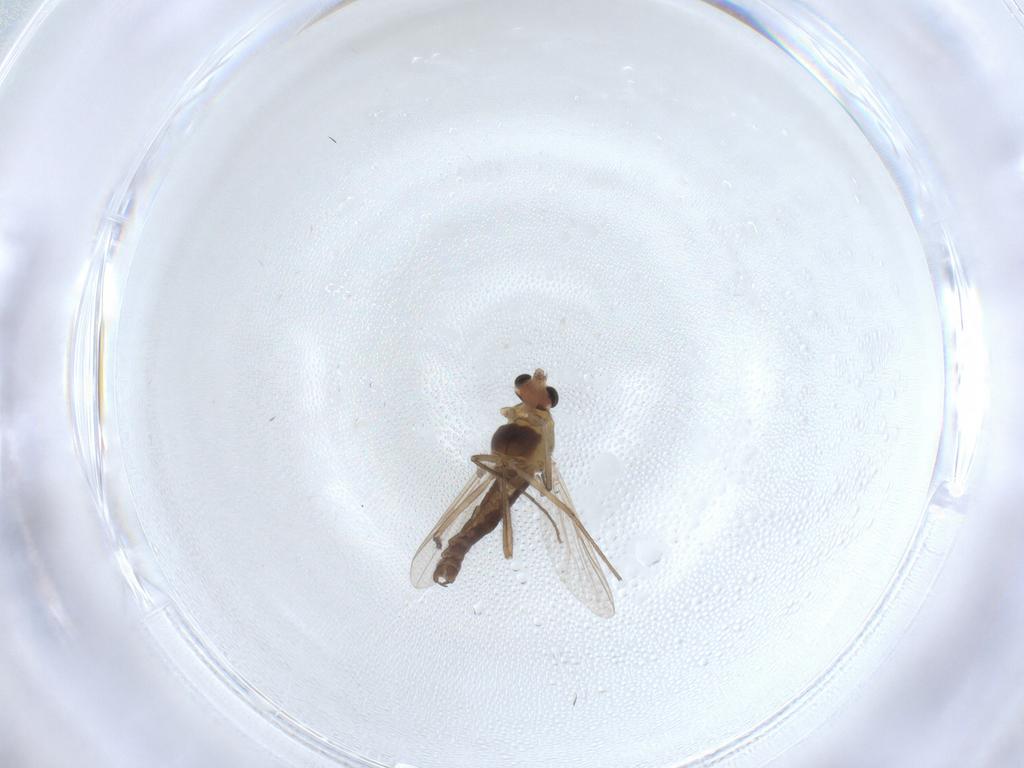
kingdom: Animalia
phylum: Arthropoda
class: Insecta
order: Diptera
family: Chironomidae
